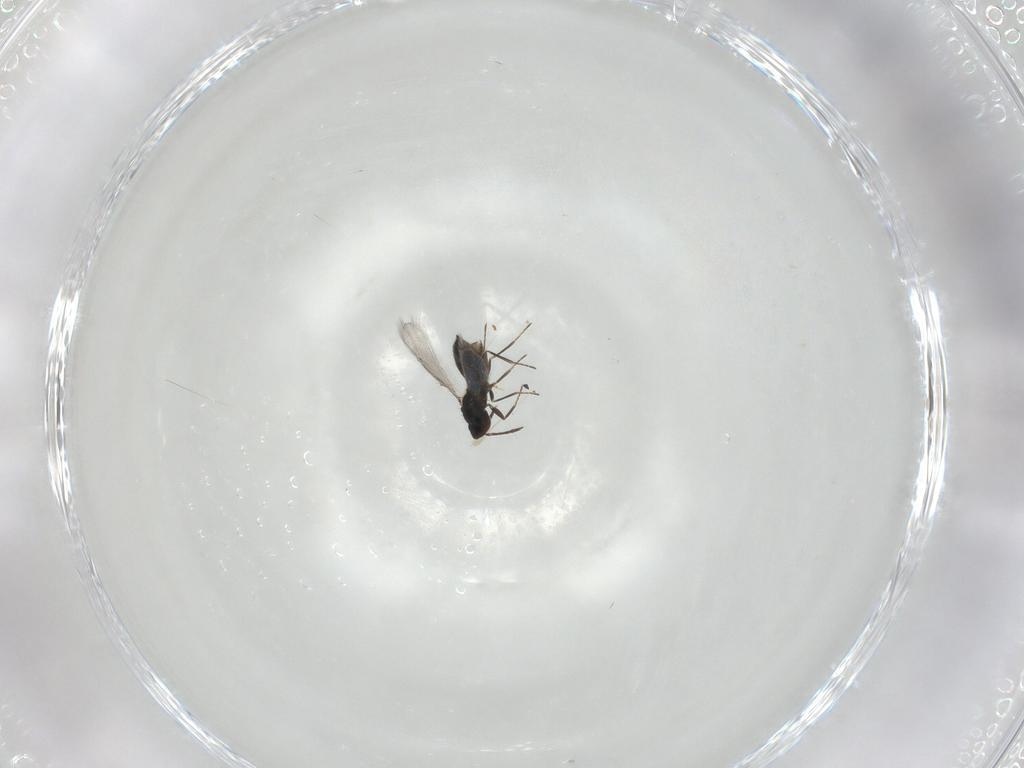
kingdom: Animalia
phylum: Arthropoda
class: Insecta
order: Hymenoptera
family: Eulophidae
